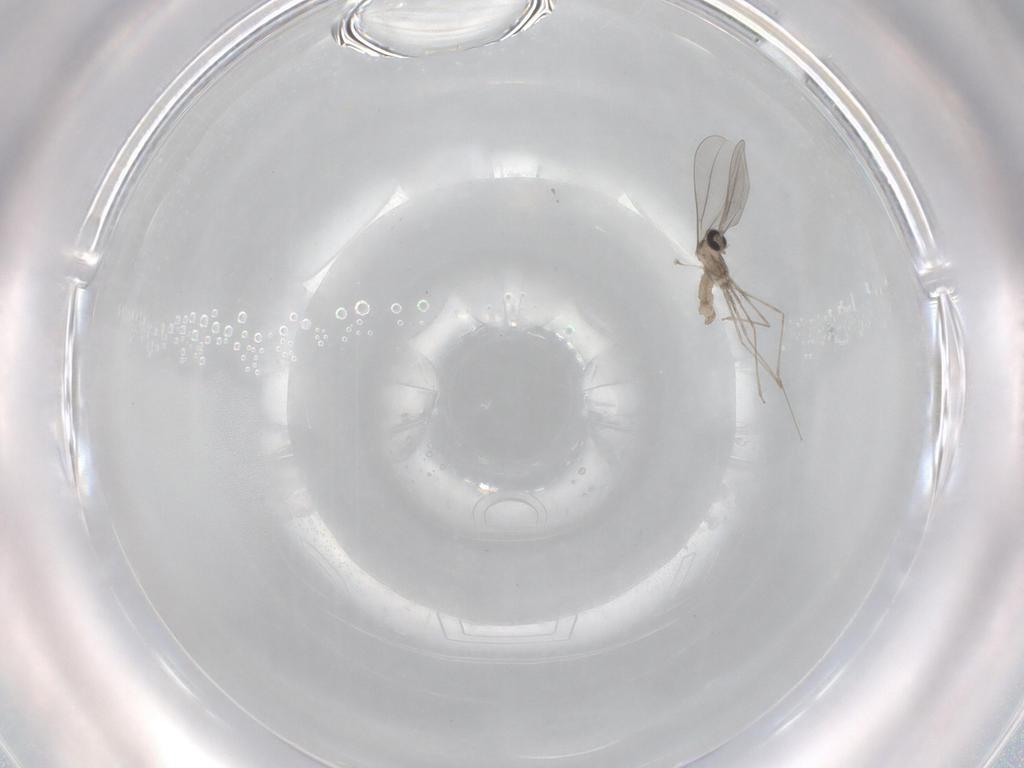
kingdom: Animalia
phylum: Arthropoda
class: Insecta
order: Diptera
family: Cecidomyiidae
